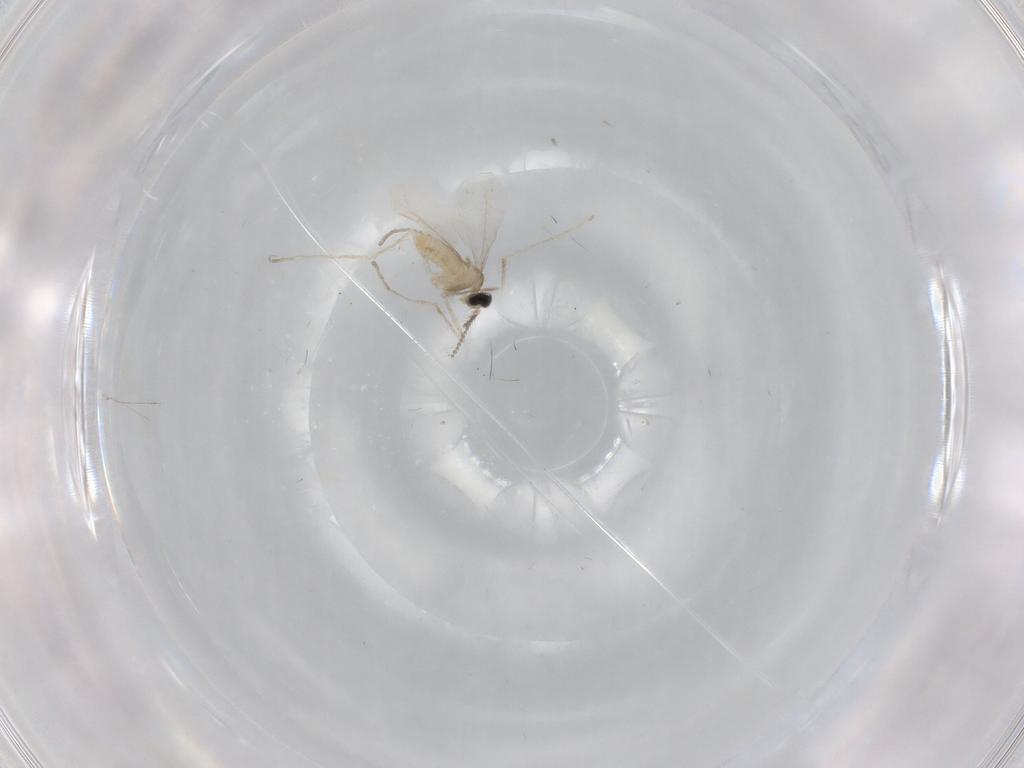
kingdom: Animalia
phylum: Arthropoda
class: Insecta
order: Diptera
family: Cecidomyiidae
